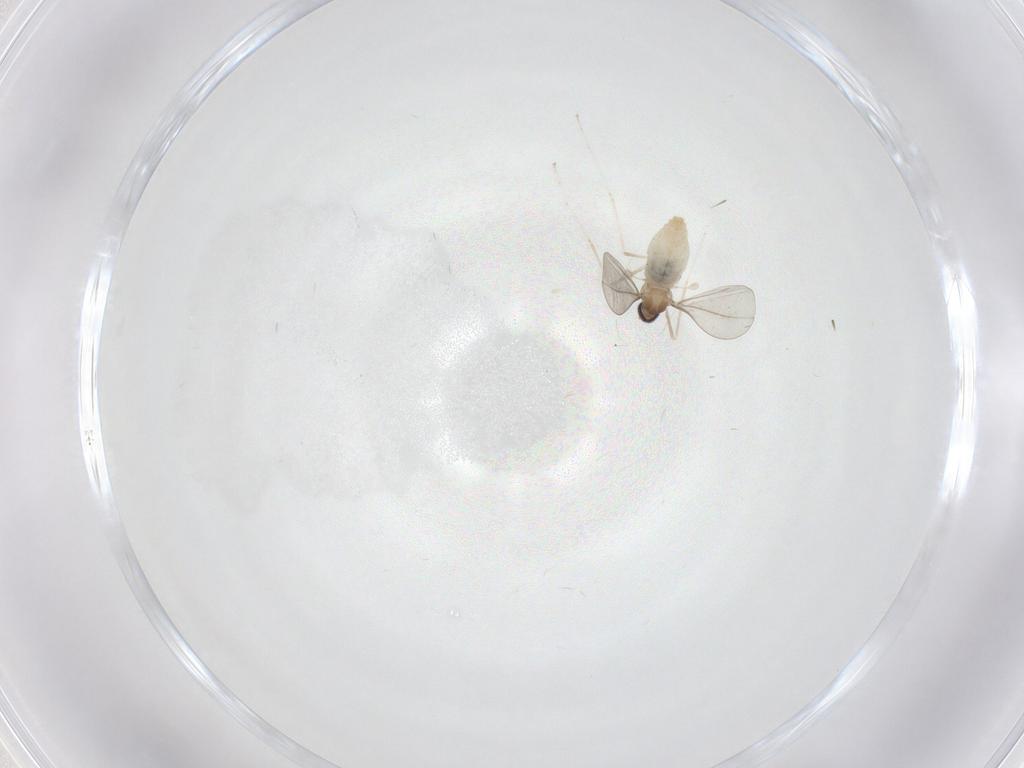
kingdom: Animalia
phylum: Arthropoda
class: Insecta
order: Diptera
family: Cecidomyiidae
